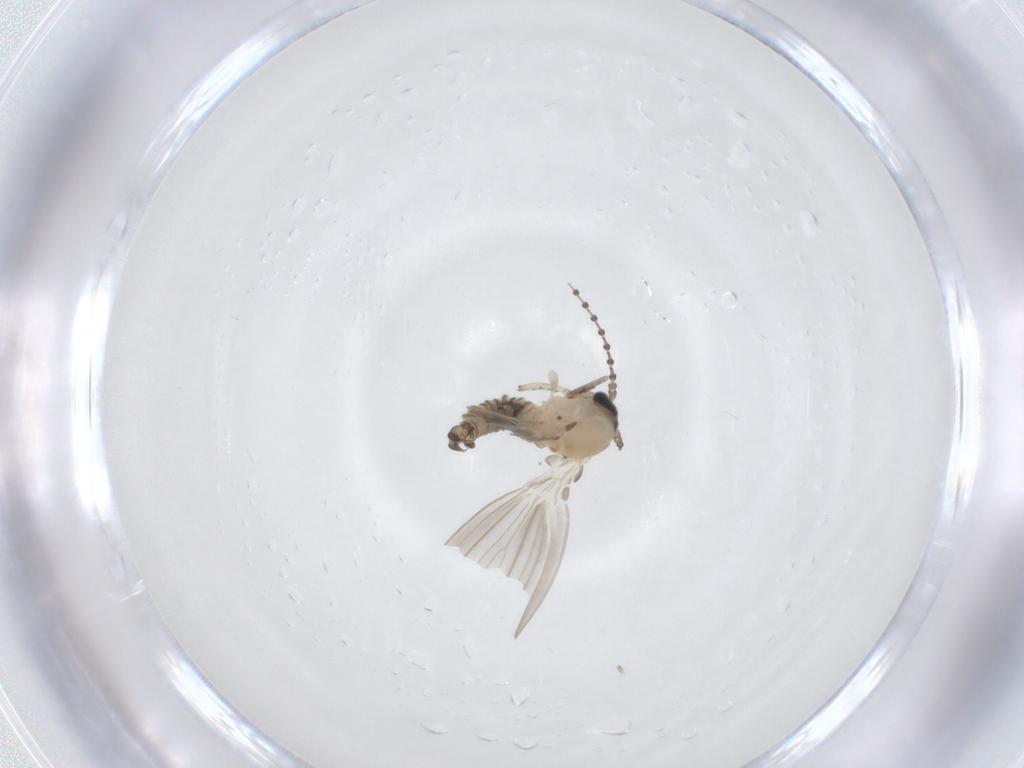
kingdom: Animalia
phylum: Arthropoda
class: Insecta
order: Diptera
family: Psychodidae
